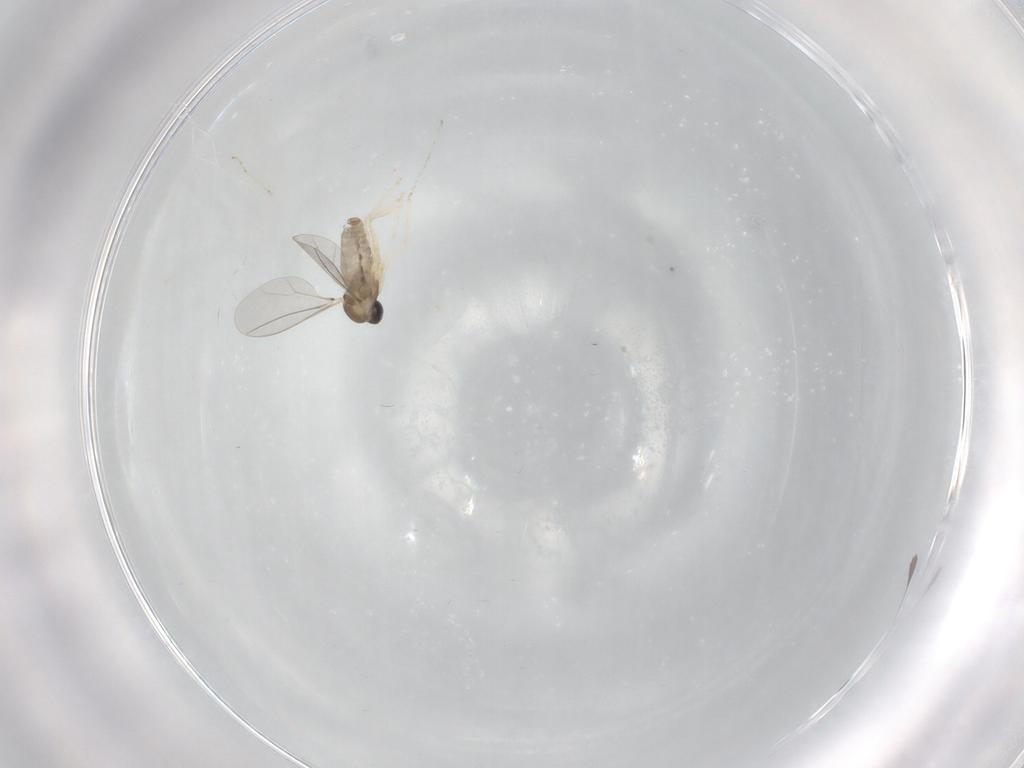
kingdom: Animalia
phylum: Arthropoda
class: Insecta
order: Diptera
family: Cecidomyiidae
